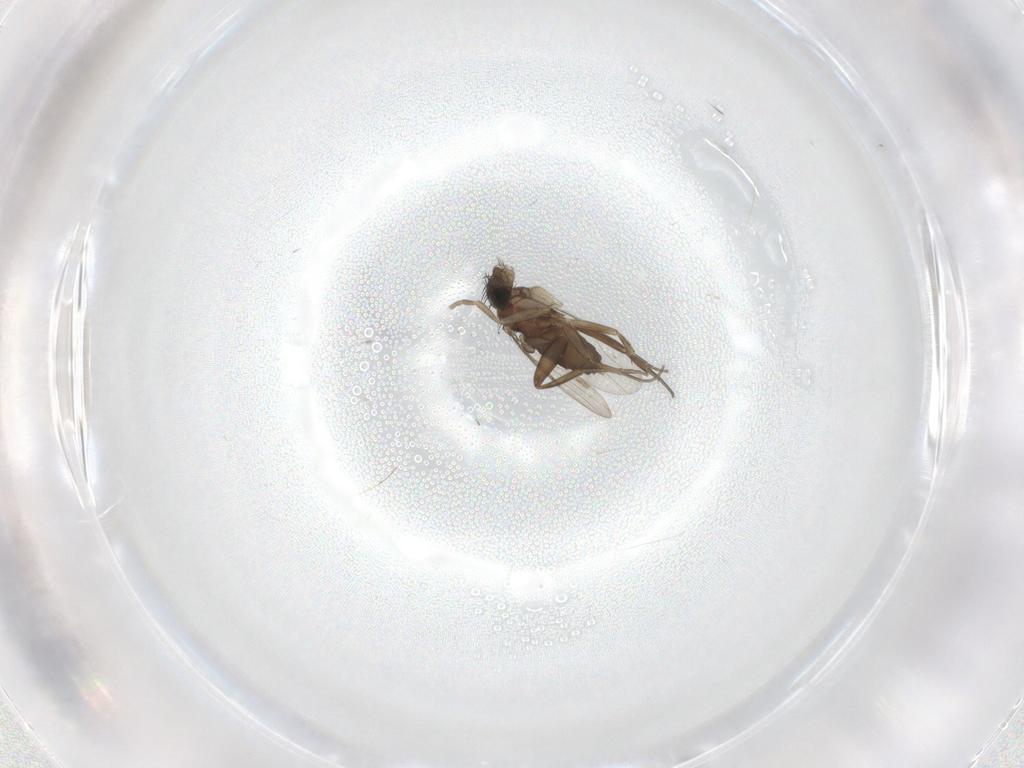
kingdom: Animalia
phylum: Arthropoda
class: Insecta
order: Diptera
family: Phoridae
